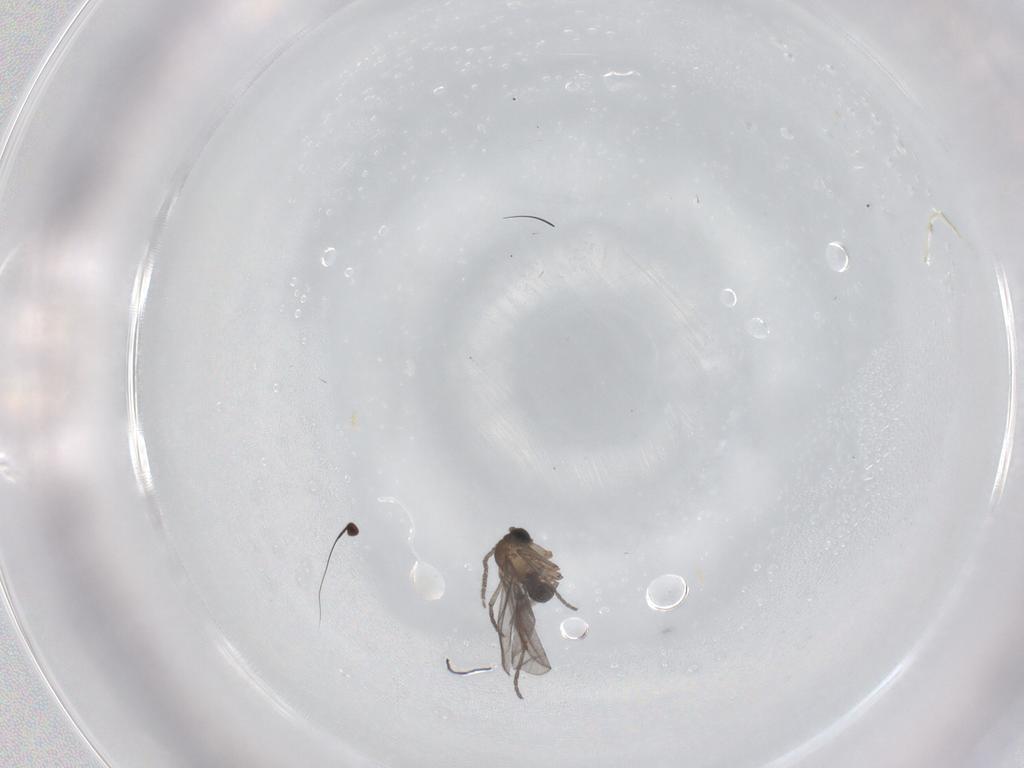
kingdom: Animalia
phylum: Arthropoda
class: Insecta
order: Diptera
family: Sciaridae
